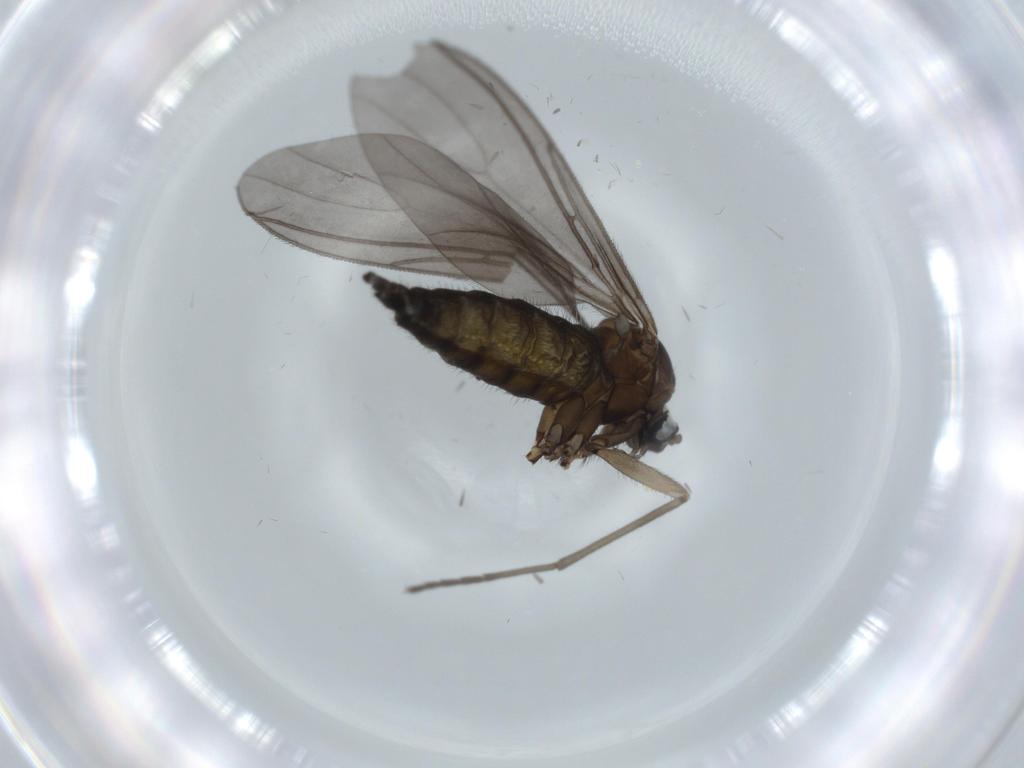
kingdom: Animalia
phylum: Arthropoda
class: Insecta
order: Diptera
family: Sciaridae
